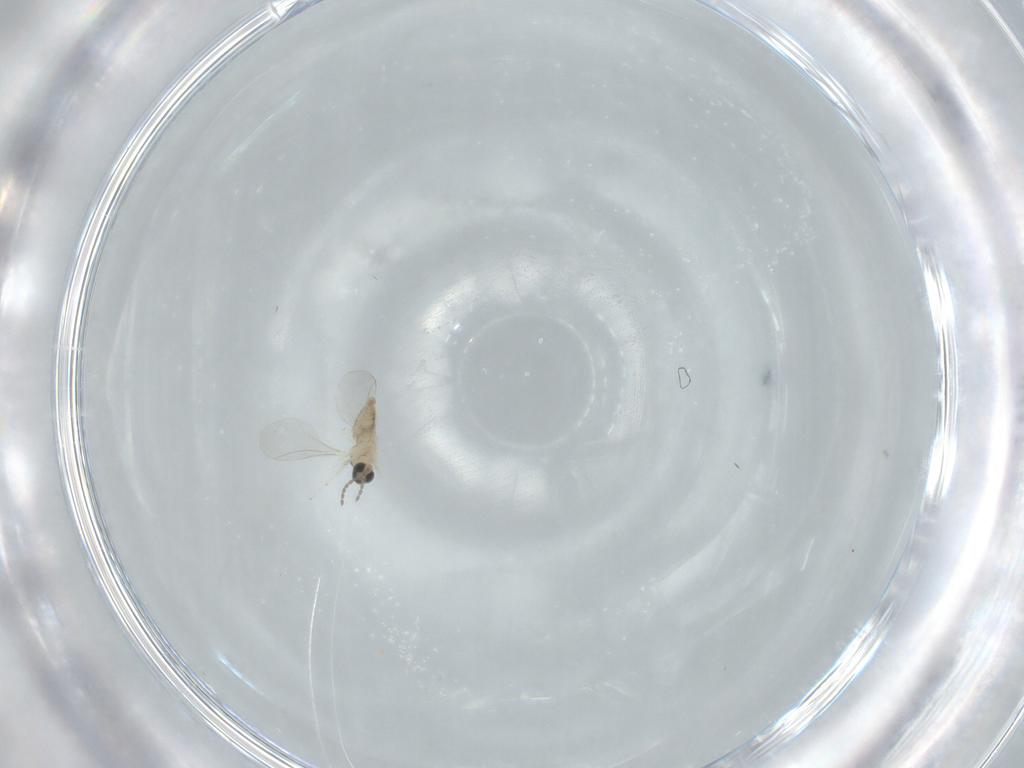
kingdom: Animalia
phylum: Arthropoda
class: Insecta
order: Diptera
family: Cecidomyiidae
